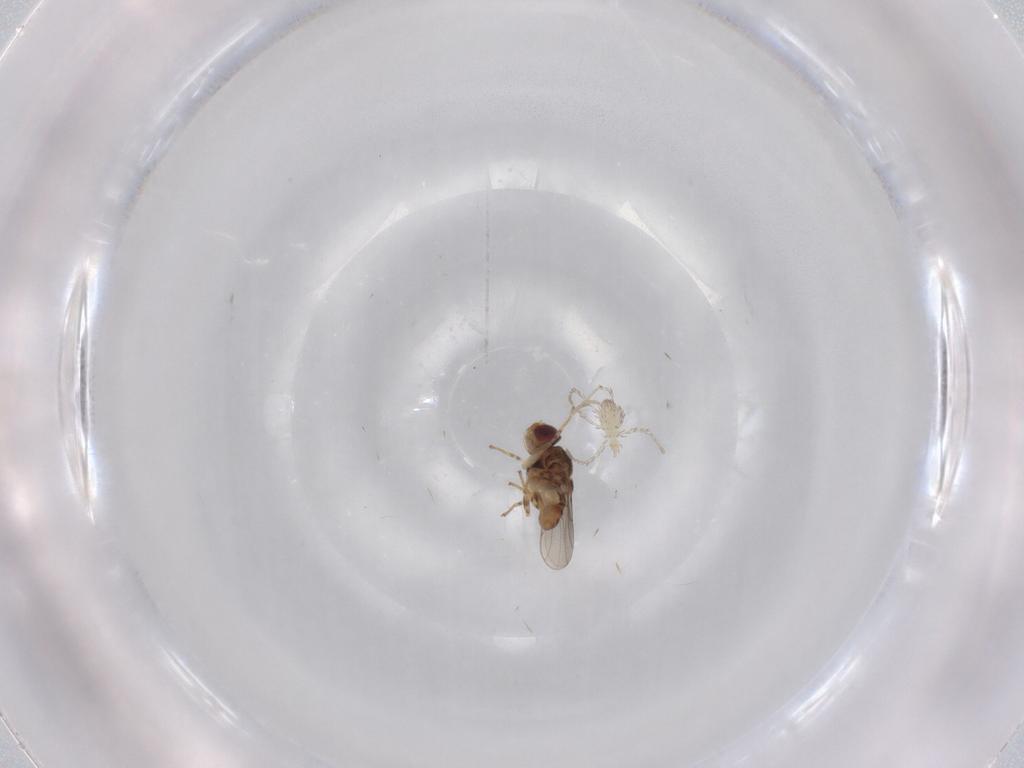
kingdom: Animalia
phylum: Arthropoda
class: Insecta
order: Diptera
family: Chloropidae
